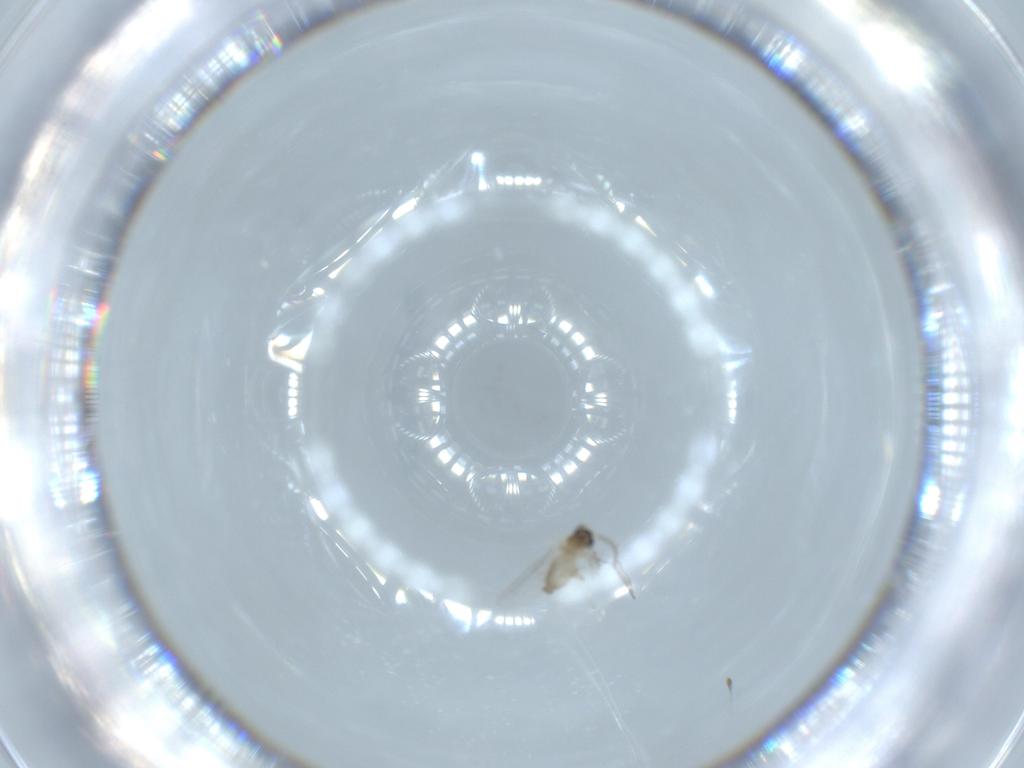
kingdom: Animalia
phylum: Arthropoda
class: Insecta
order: Diptera
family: Cecidomyiidae
